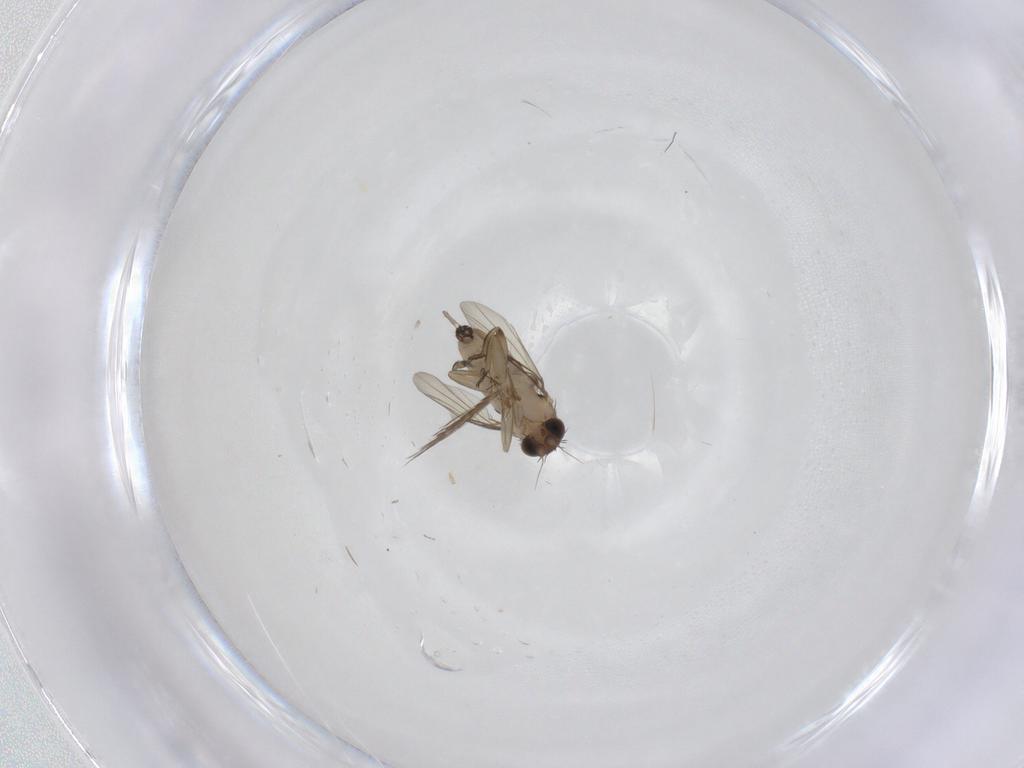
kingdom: Animalia
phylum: Arthropoda
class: Insecta
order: Diptera
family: Phoridae
